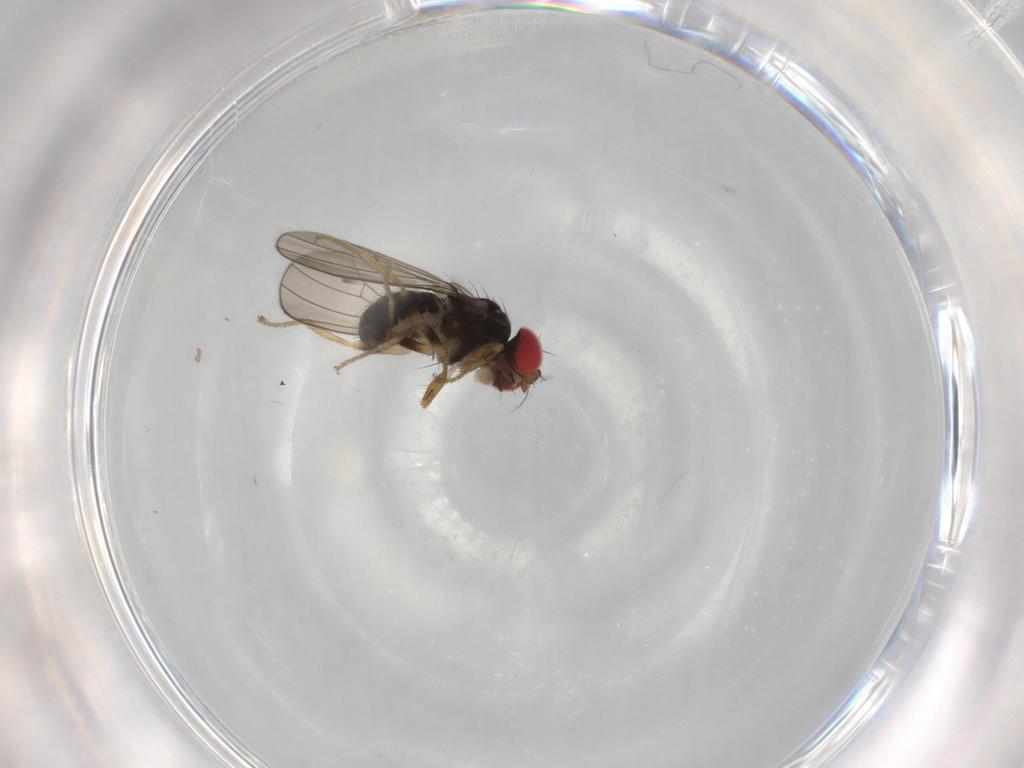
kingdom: Animalia
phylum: Arthropoda
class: Insecta
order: Diptera
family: Drosophilidae
